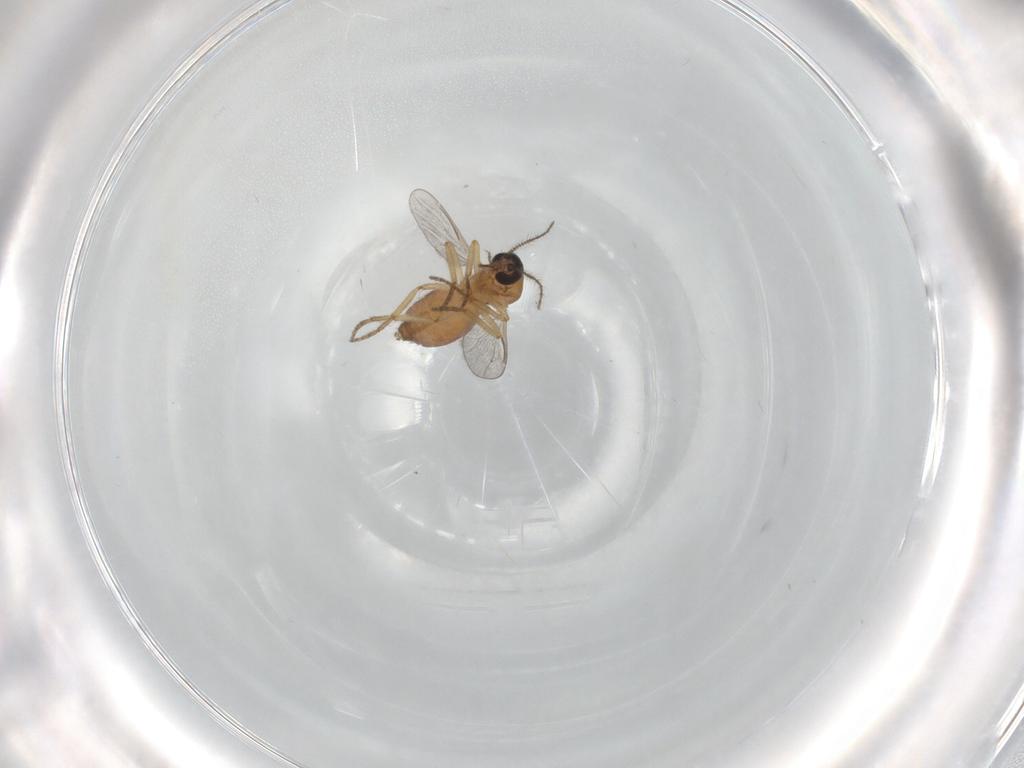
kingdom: Animalia
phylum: Arthropoda
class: Insecta
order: Diptera
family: Ceratopogonidae
